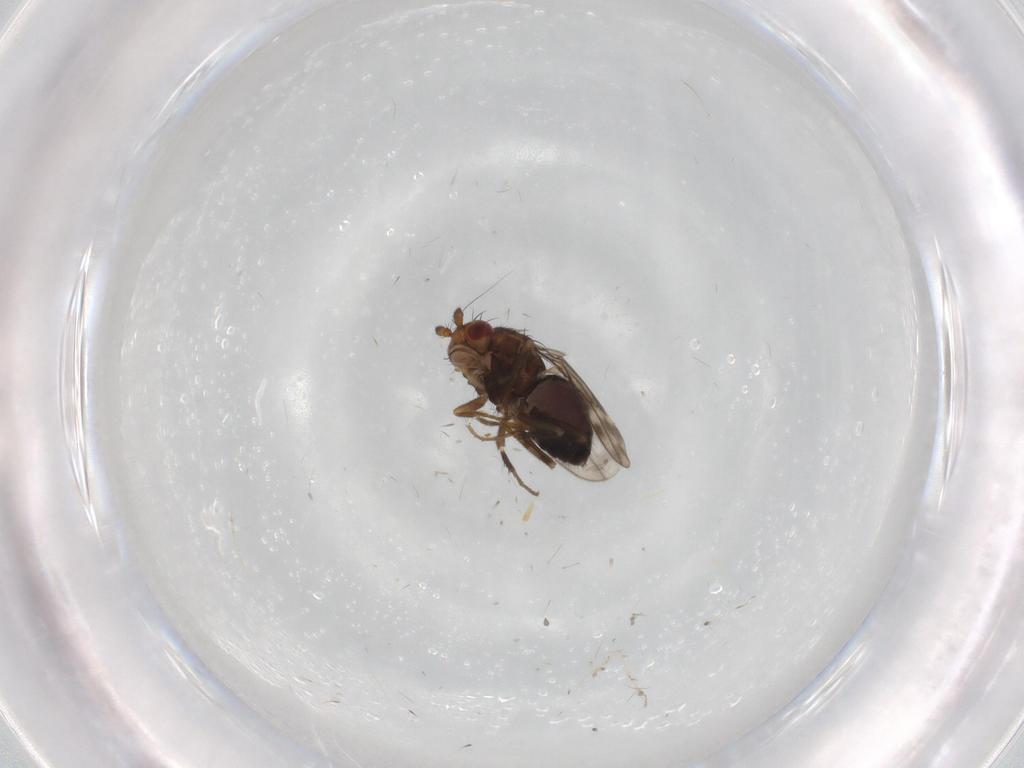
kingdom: Animalia
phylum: Arthropoda
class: Insecta
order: Diptera
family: Sphaeroceridae
